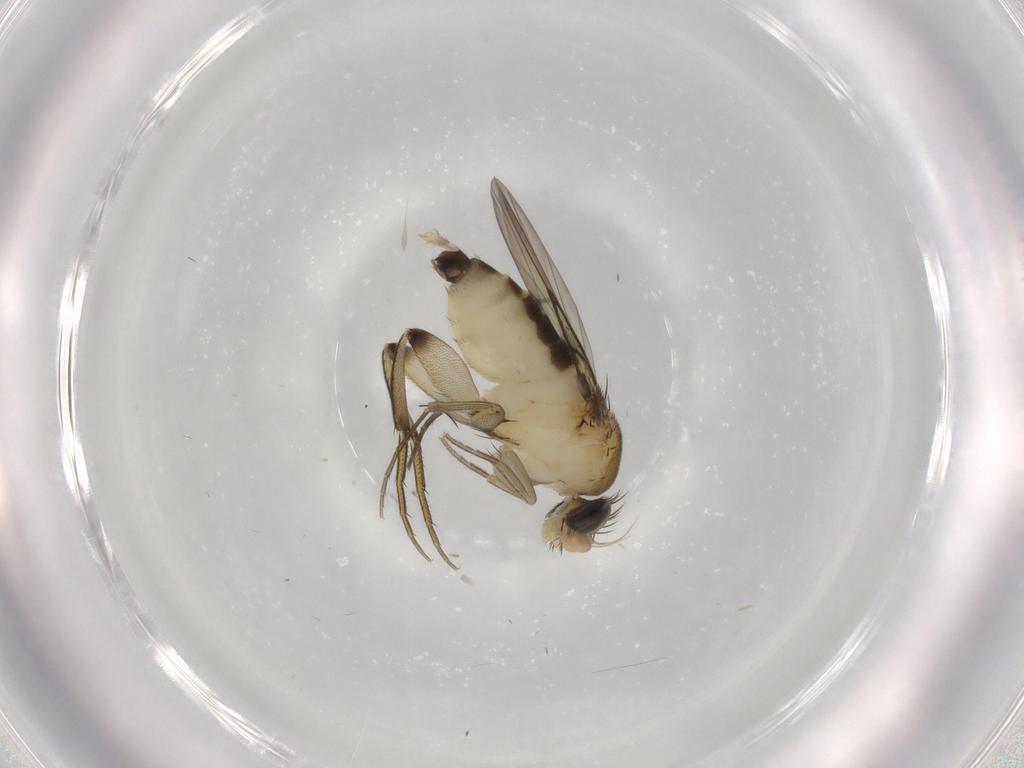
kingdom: Animalia
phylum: Arthropoda
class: Insecta
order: Diptera
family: Phoridae
